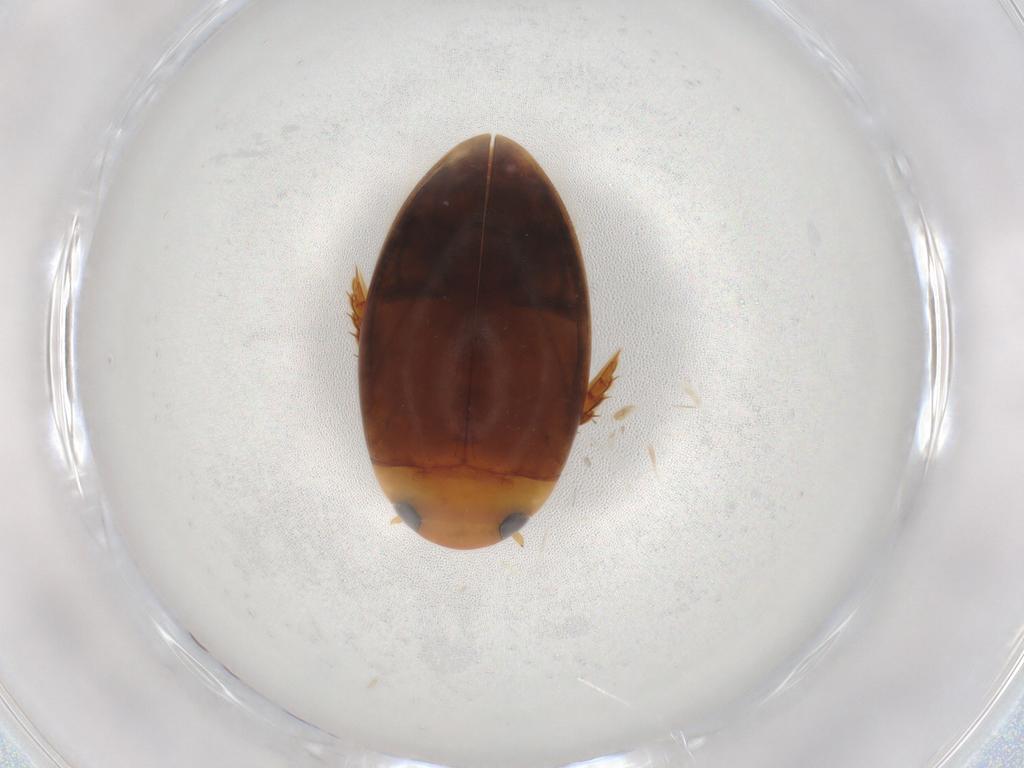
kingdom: Animalia
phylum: Arthropoda
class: Insecta
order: Coleoptera
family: Dytiscidae
